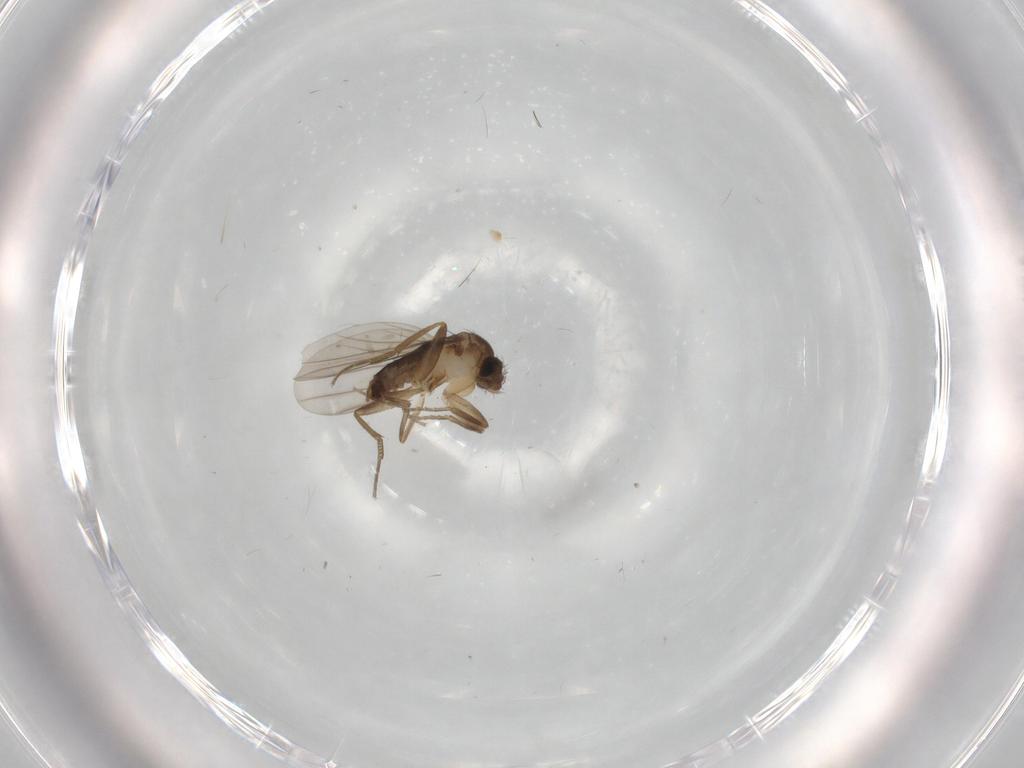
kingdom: Animalia
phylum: Arthropoda
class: Insecta
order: Diptera
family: Phoridae
